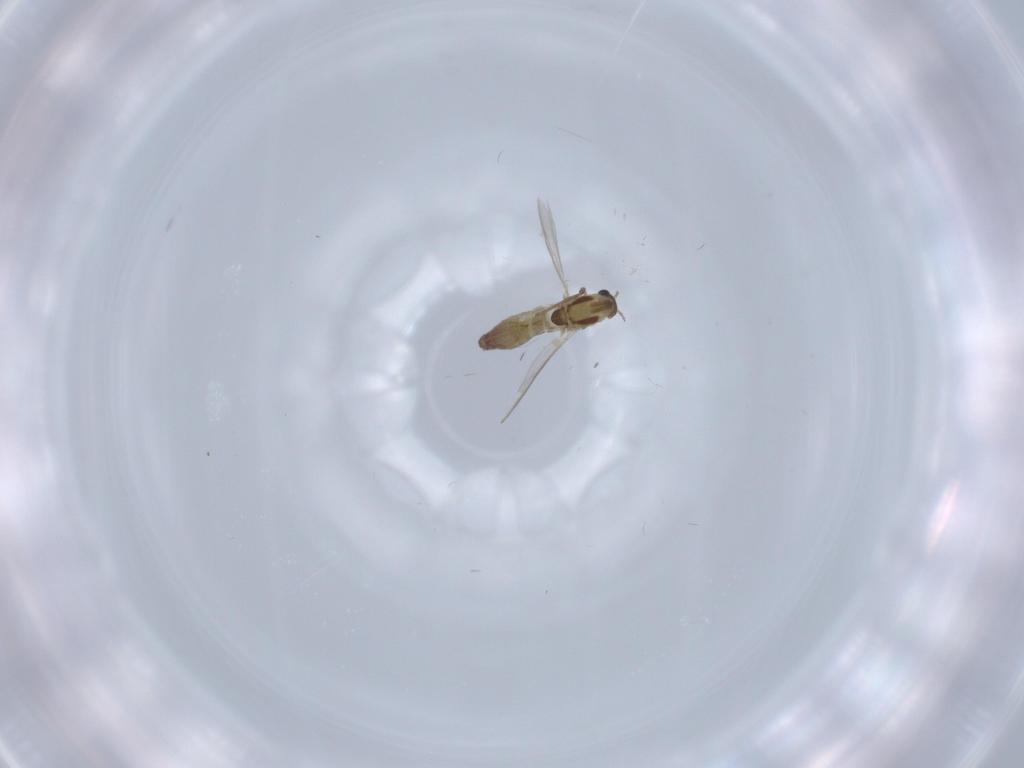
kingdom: Animalia
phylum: Arthropoda
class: Insecta
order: Diptera
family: Chironomidae
